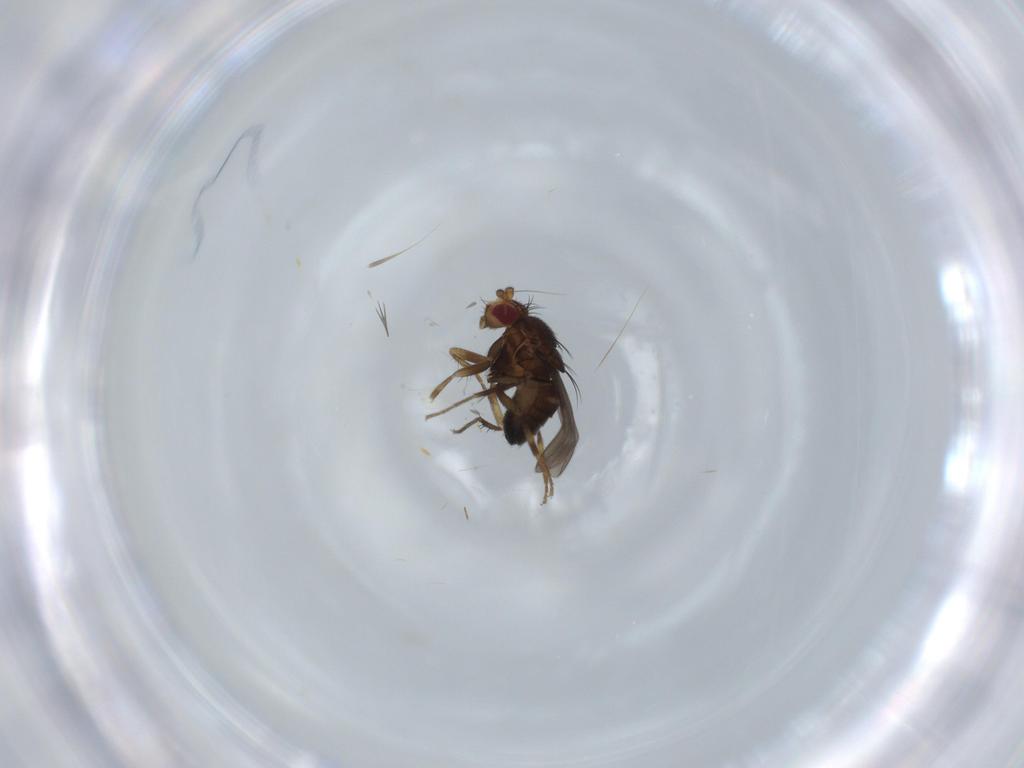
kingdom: Animalia
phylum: Arthropoda
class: Insecta
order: Diptera
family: Sphaeroceridae
